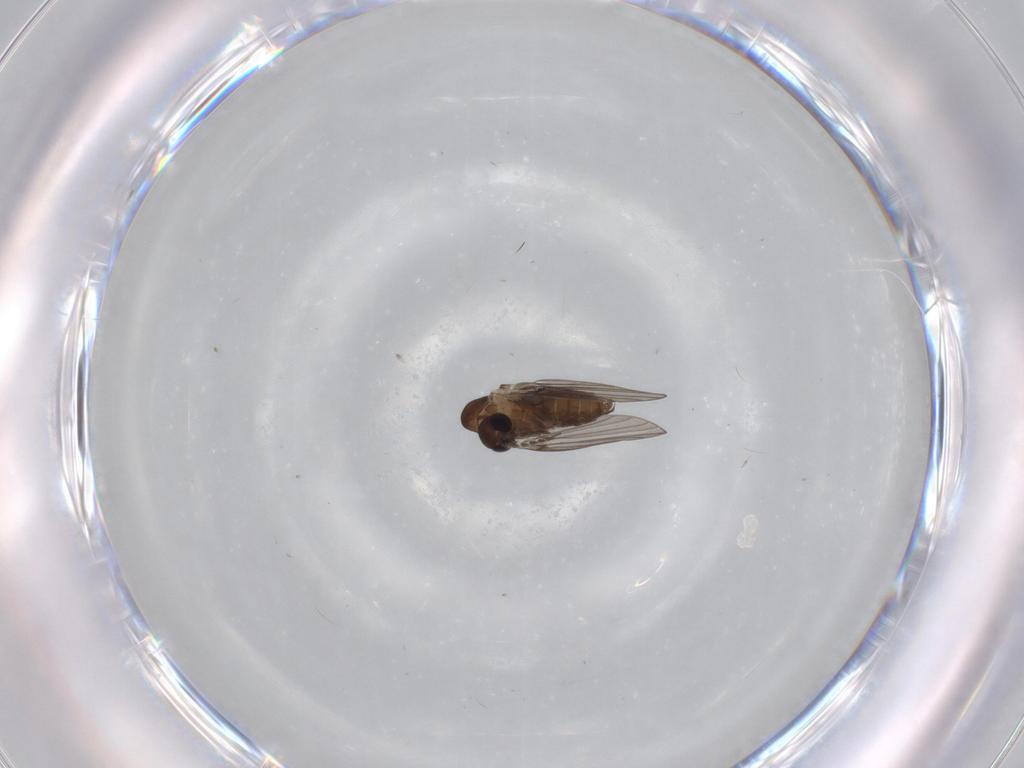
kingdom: Animalia
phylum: Arthropoda
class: Insecta
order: Diptera
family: Psychodidae
